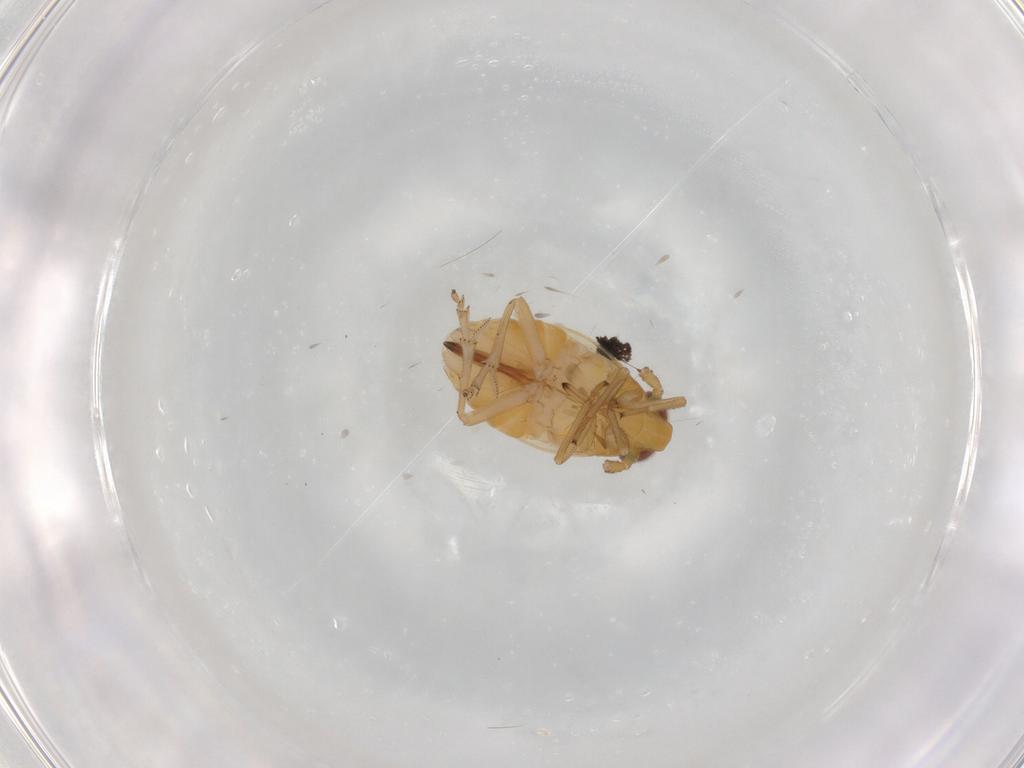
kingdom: Animalia
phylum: Arthropoda
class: Insecta
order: Hemiptera
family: Delphacidae
